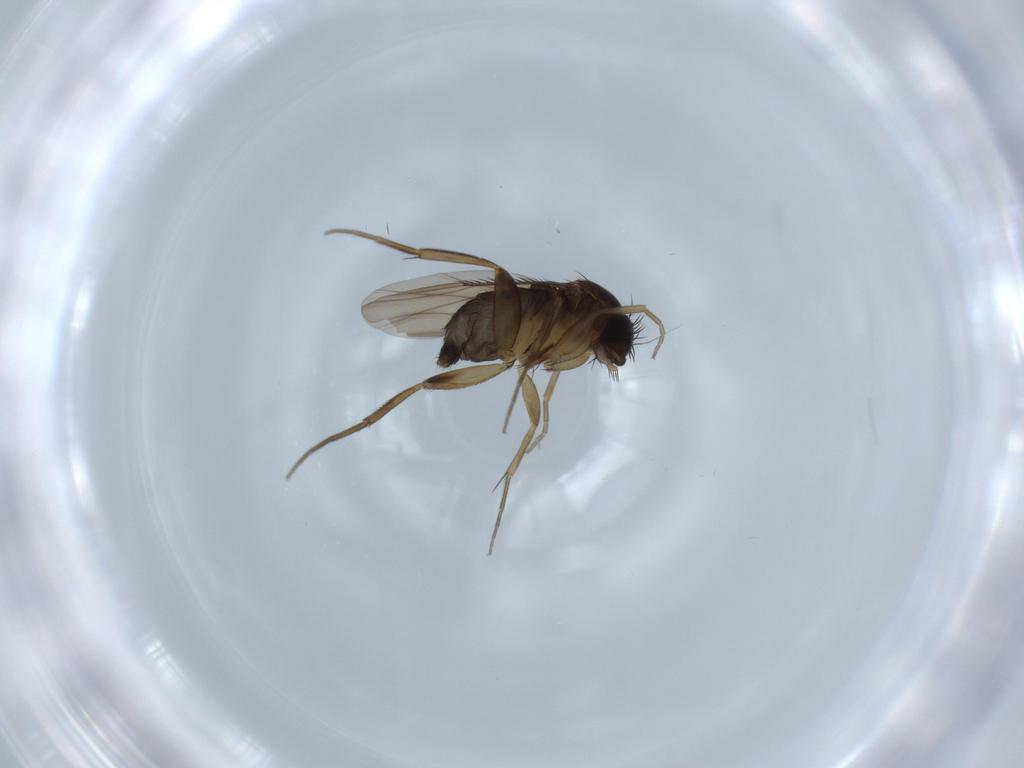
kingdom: Animalia
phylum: Arthropoda
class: Insecta
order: Diptera
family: Phoridae
